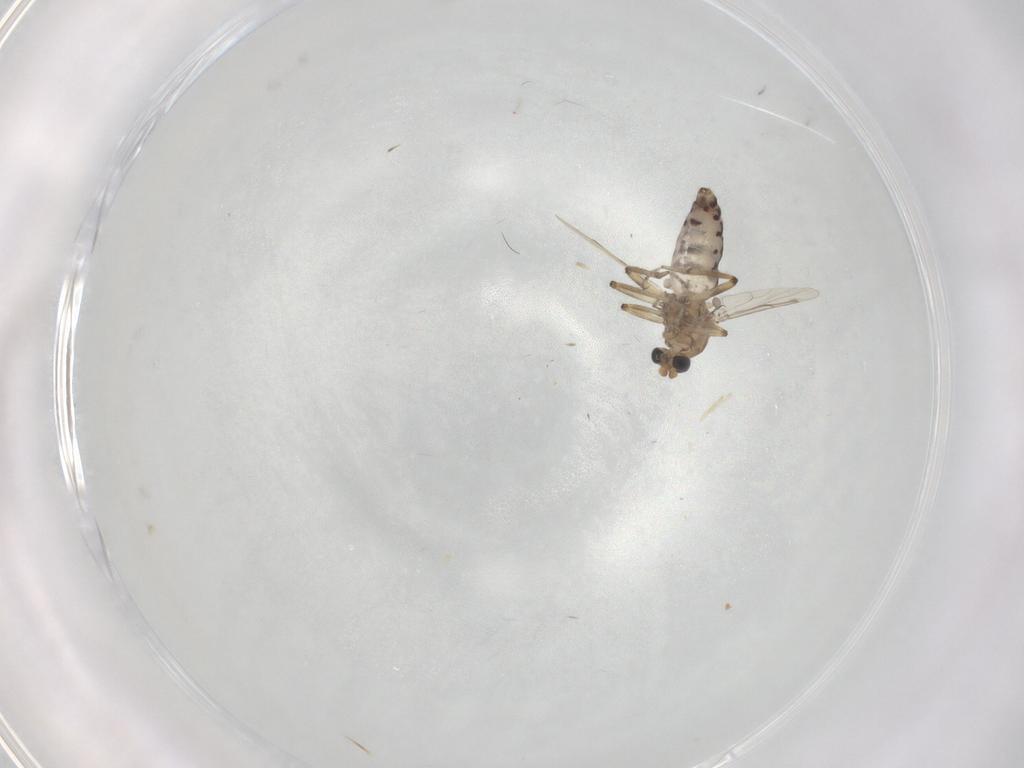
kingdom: Animalia
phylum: Arthropoda
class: Insecta
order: Diptera
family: Ceratopogonidae
